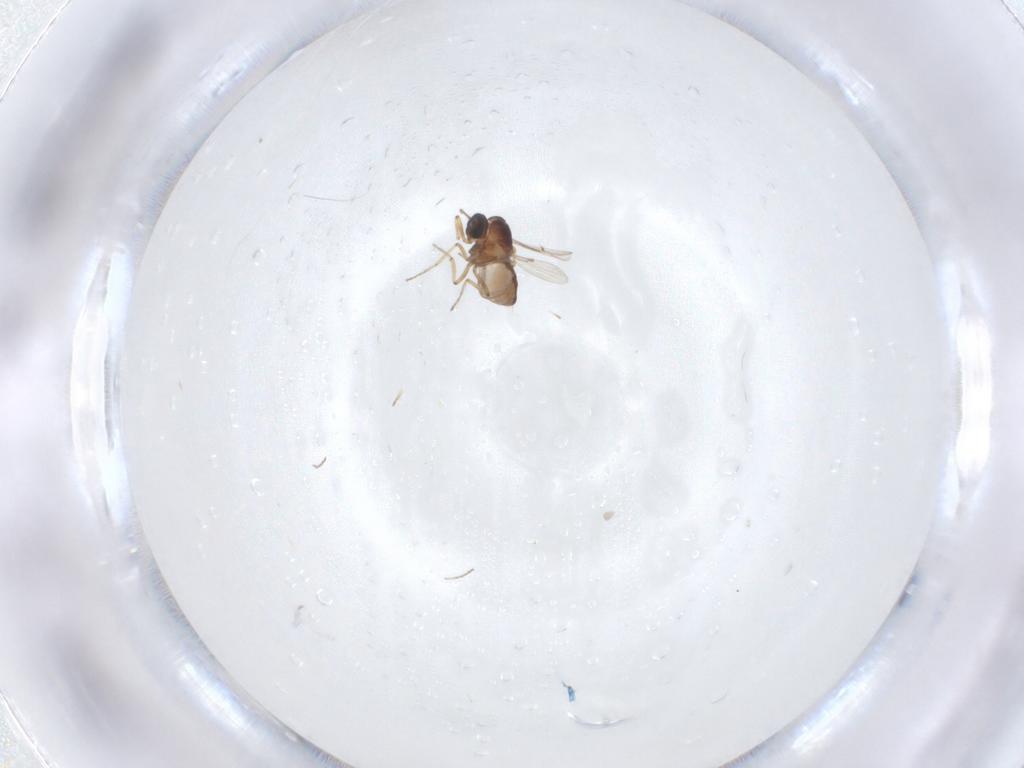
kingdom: Animalia
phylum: Arthropoda
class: Insecta
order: Diptera
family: Ceratopogonidae
